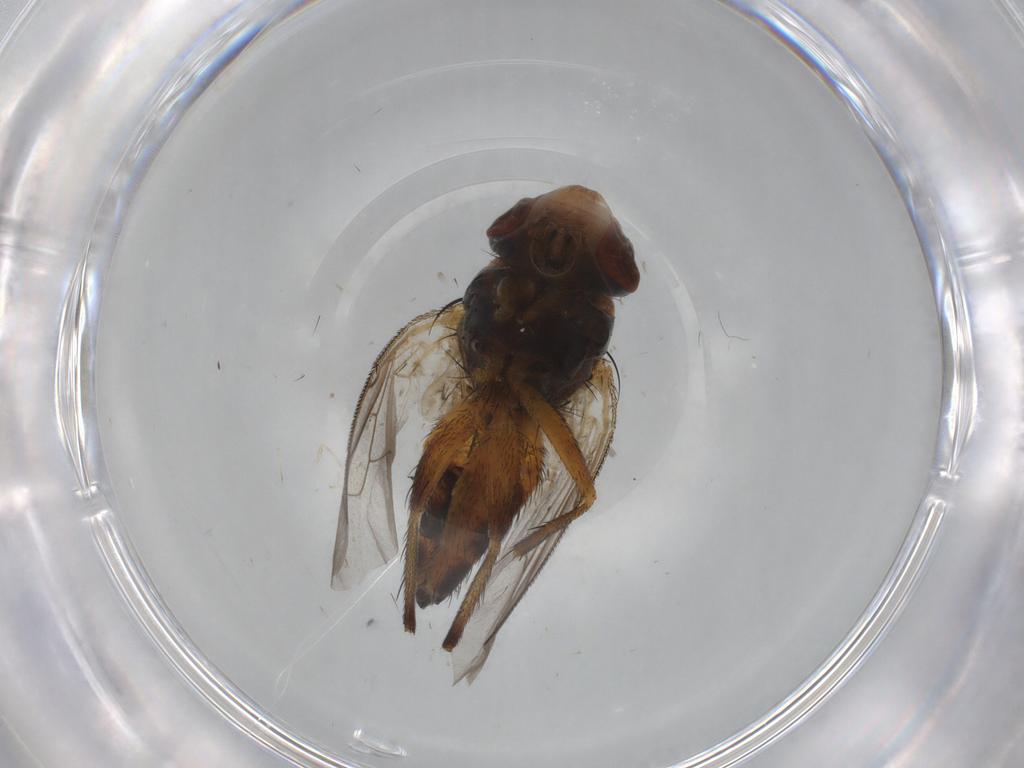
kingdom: Animalia
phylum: Arthropoda
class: Insecta
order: Diptera
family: Sarcophagidae
